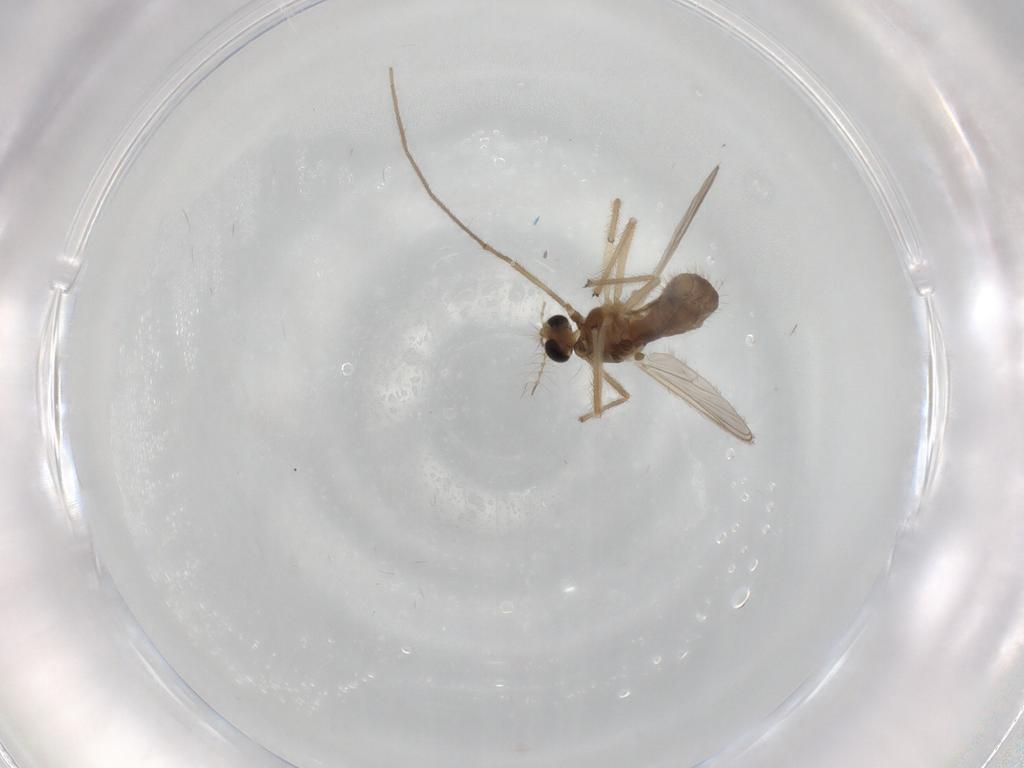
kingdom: Animalia
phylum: Arthropoda
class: Insecta
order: Diptera
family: Chironomidae
